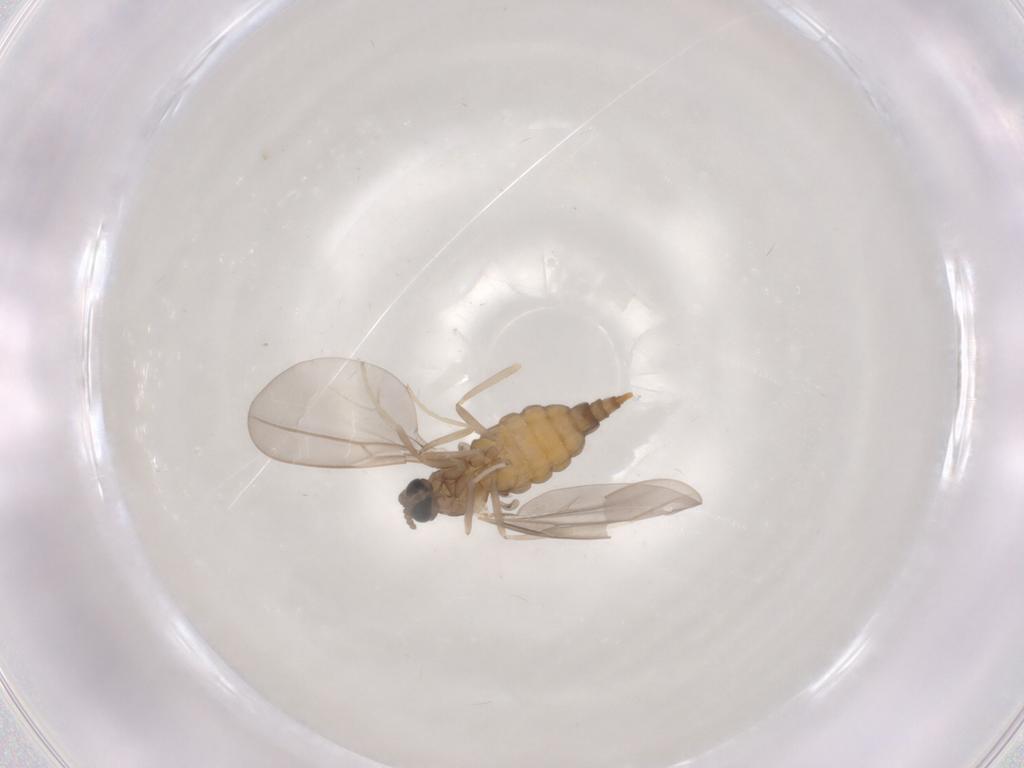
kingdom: Animalia
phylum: Arthropoda
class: Insecta
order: Diptera
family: Cecidomyiidae
